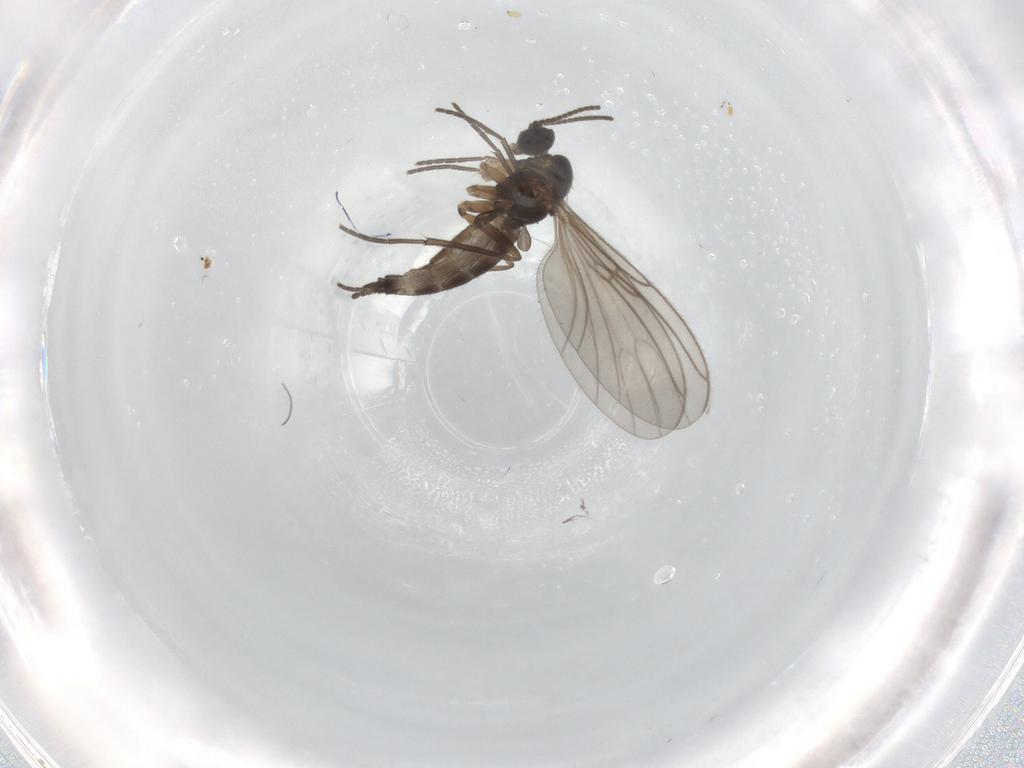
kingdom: Animalia
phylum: Arthropoda
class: Insecta
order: Diptera
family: Sciaridae
